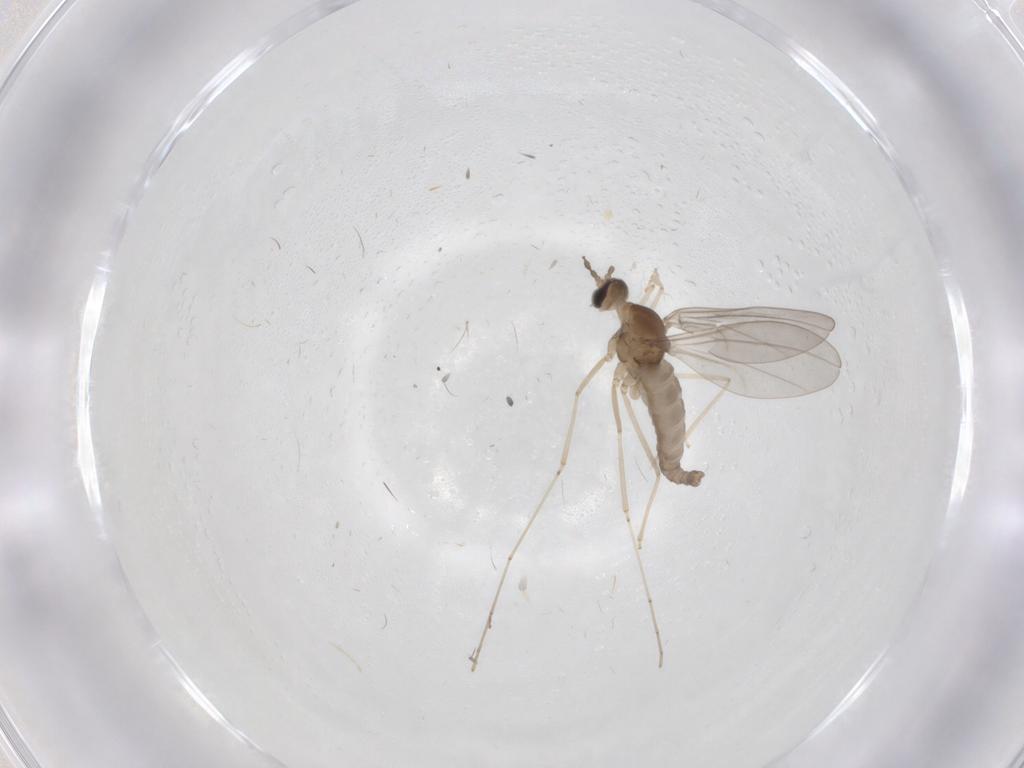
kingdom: Animalia
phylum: Arthropoda
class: Insecta
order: Diptera
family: Cecidomyiidae
